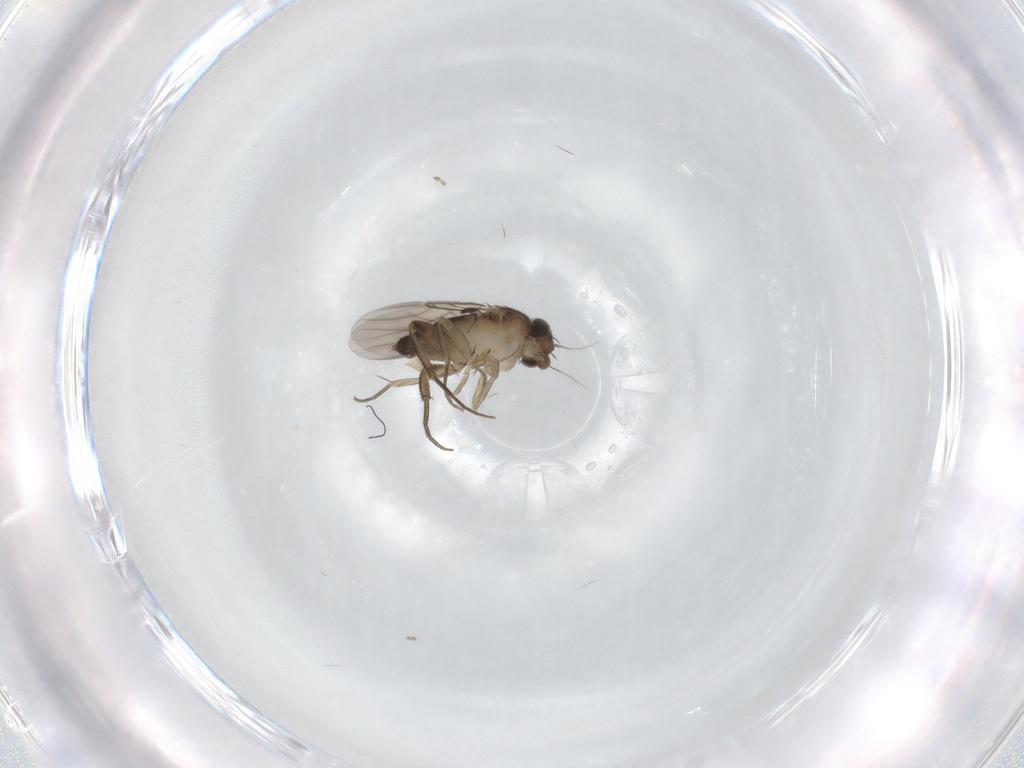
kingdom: Animalia
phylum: Arthropoda
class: Insecta
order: Diptera
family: Phoridae
